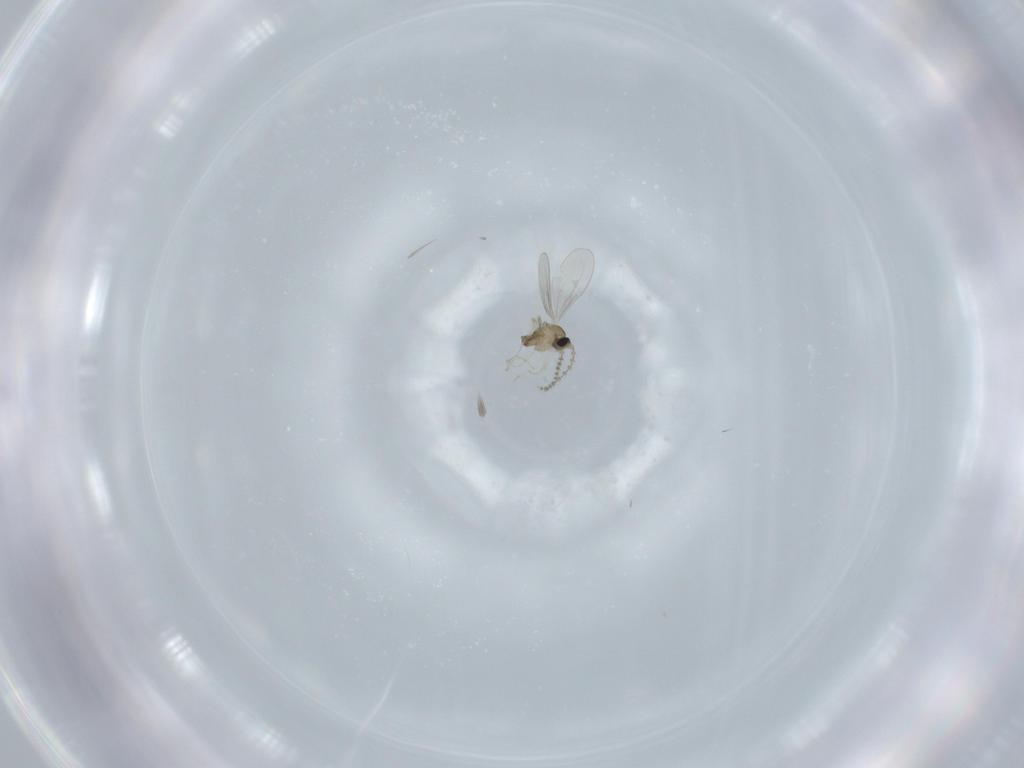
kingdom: Animalia
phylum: Arthropoda
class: Insecta
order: Diptera
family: Cecidomyiidae
